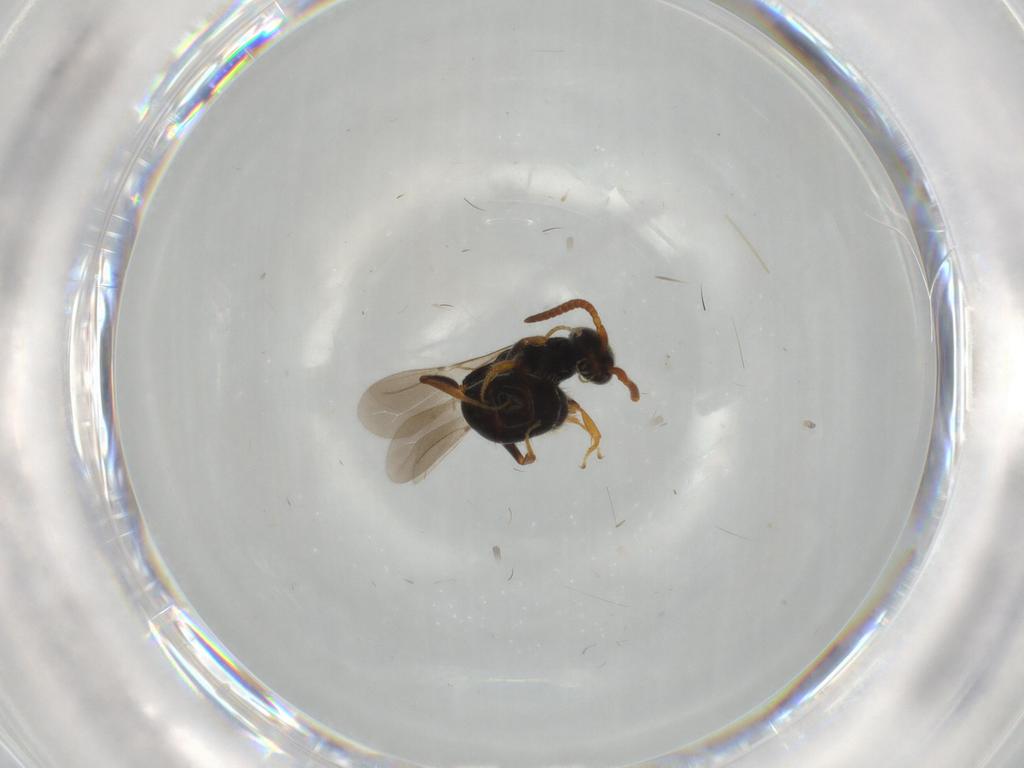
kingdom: Animalia
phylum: Arthropoda
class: Insecta
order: Hymenoptera
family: Bethylidae
